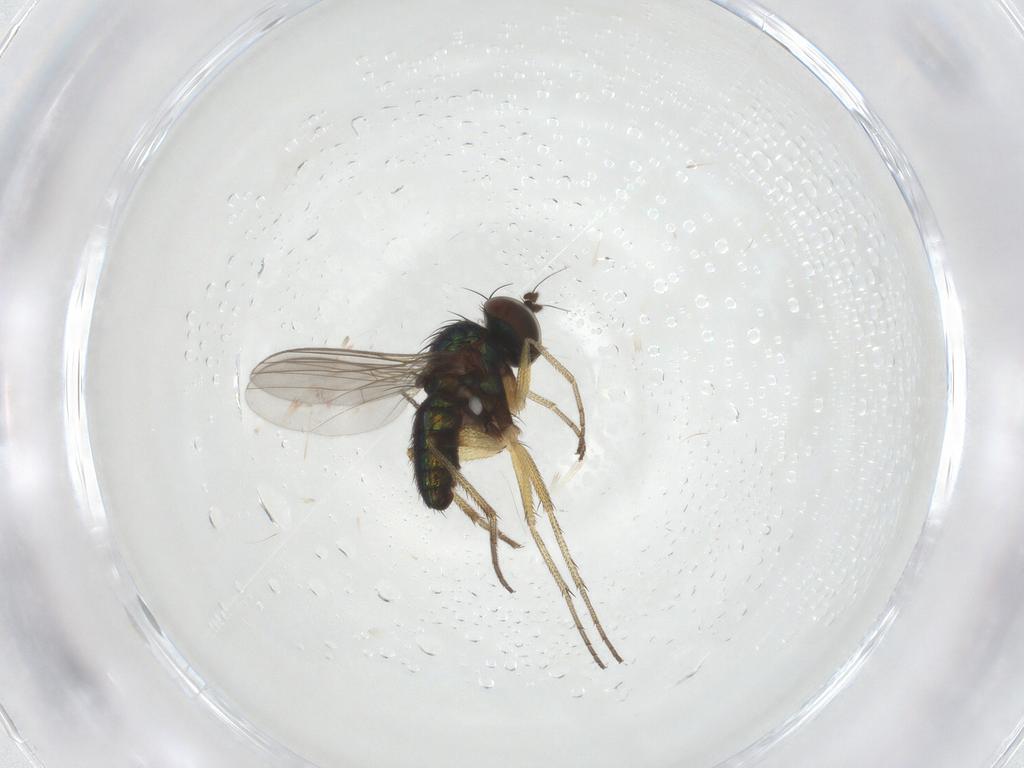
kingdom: Animalia
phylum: Arthropoda
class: Insecta
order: Diptera
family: Dolichopodidae
